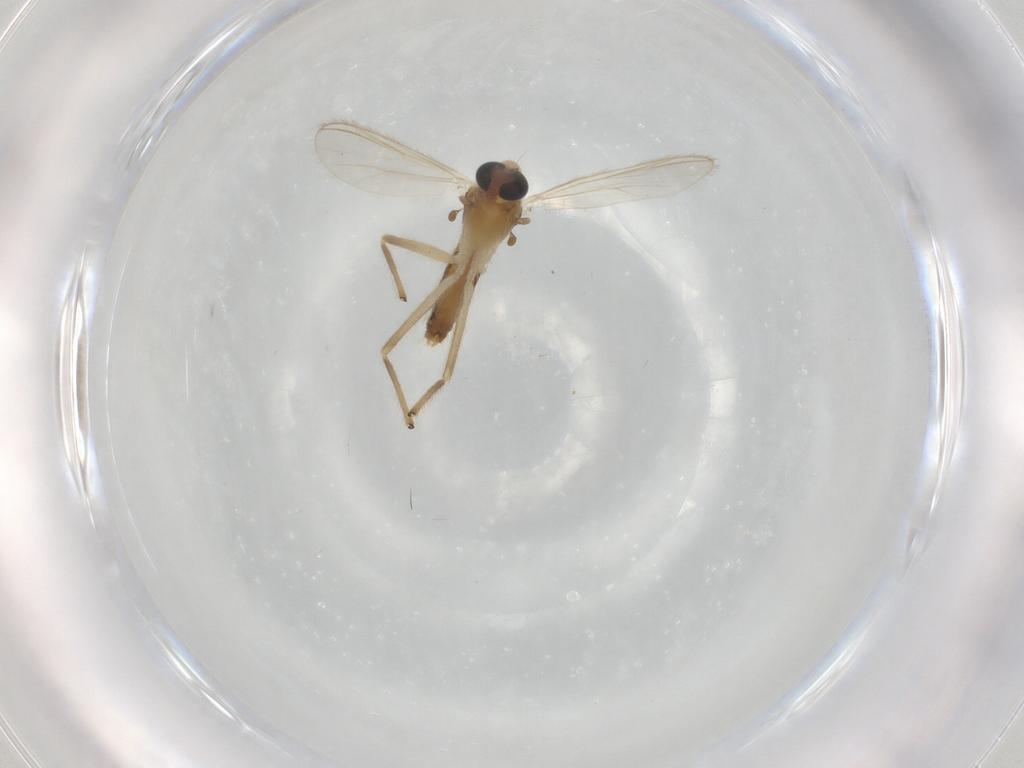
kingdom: Animalia
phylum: Arthropoda
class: Insecta
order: Diptera
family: Chironomidae
